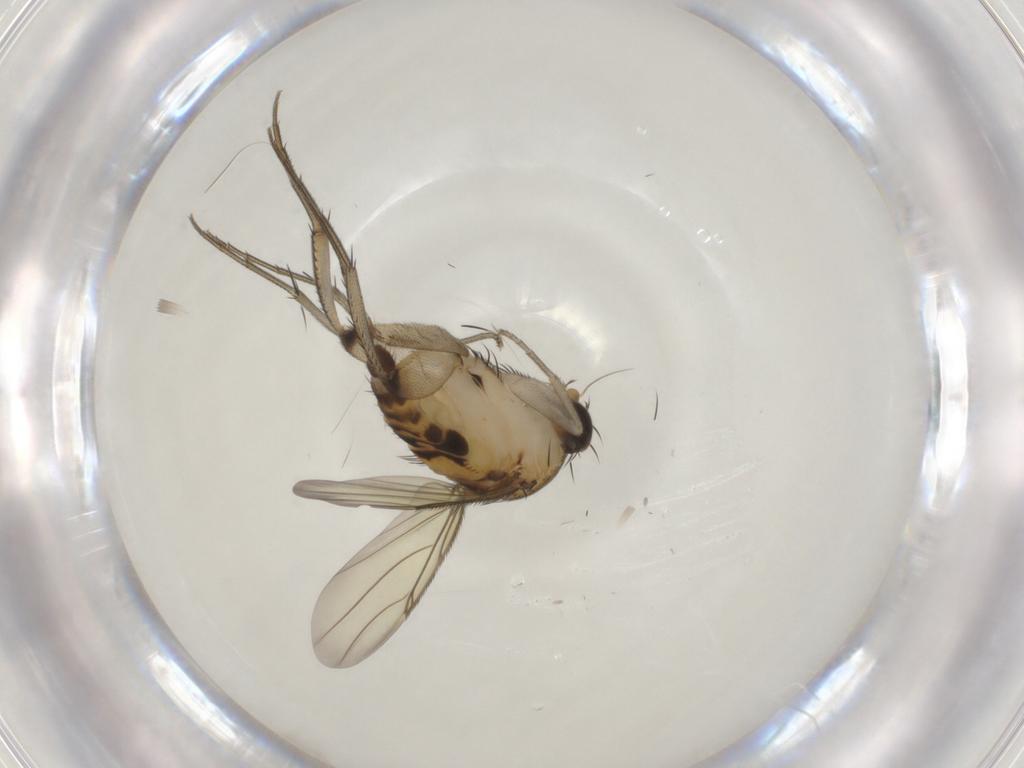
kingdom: Animalia
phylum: Arthropoda
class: Insecta
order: Diptera
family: Phoridae
